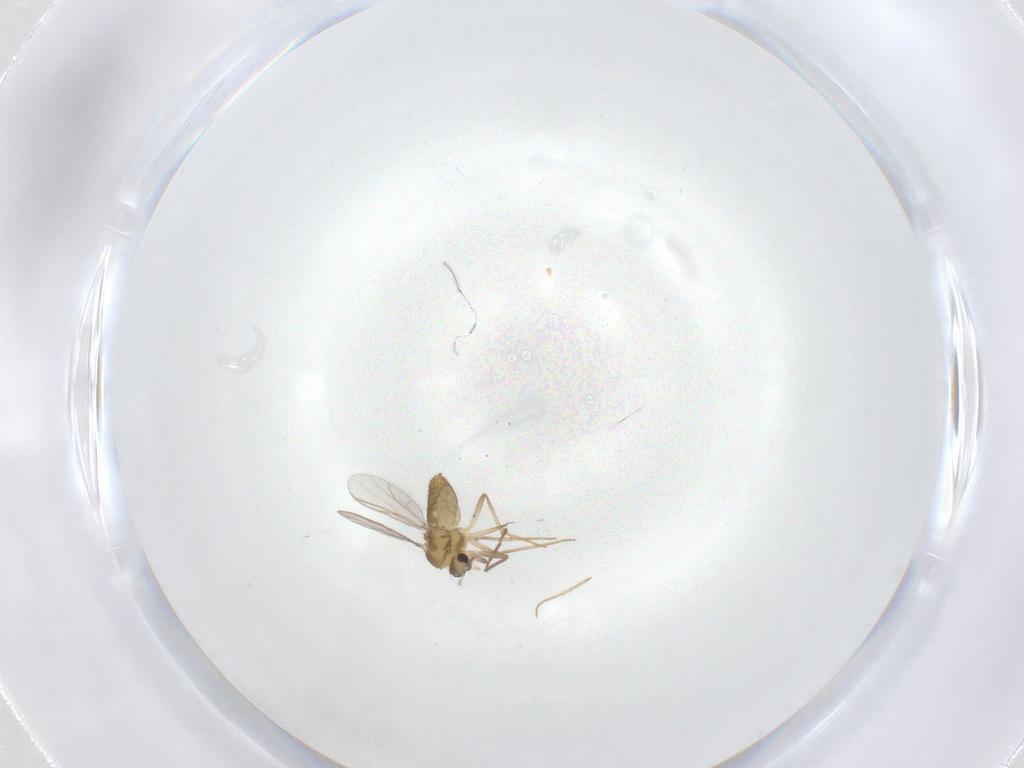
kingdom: Animalia
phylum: Arthropoda
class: Insecta
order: Diptera
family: Chironomidae
